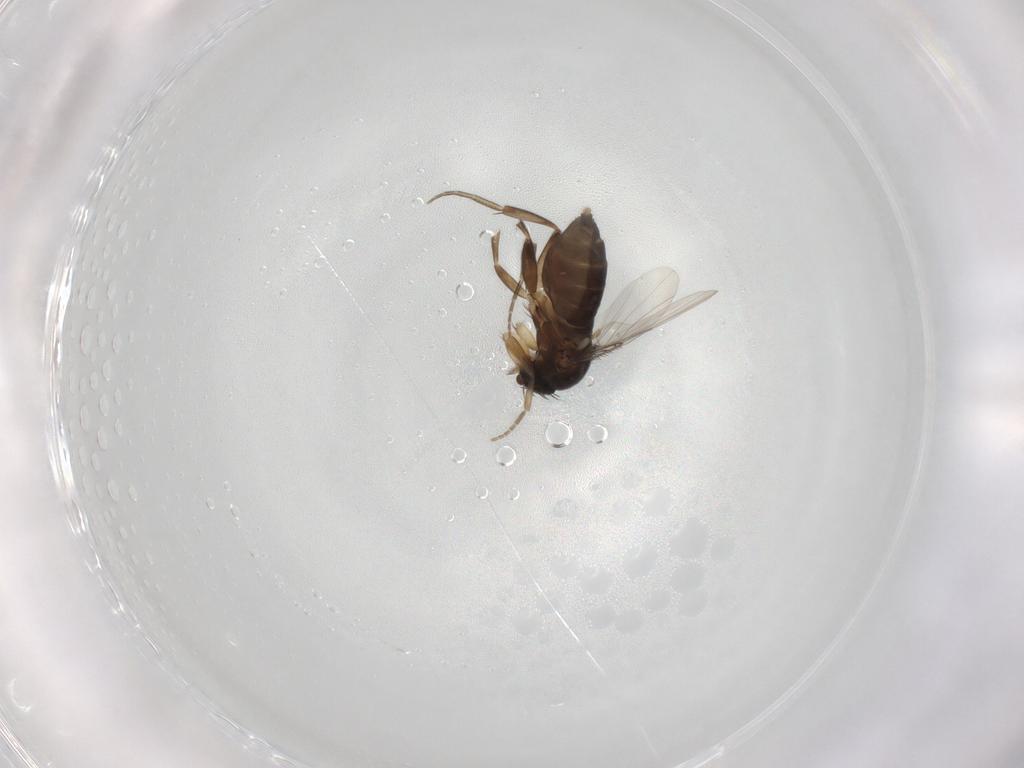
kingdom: Animalia
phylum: Arthropoda
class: Insecta
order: Diptera
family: Phoridae
